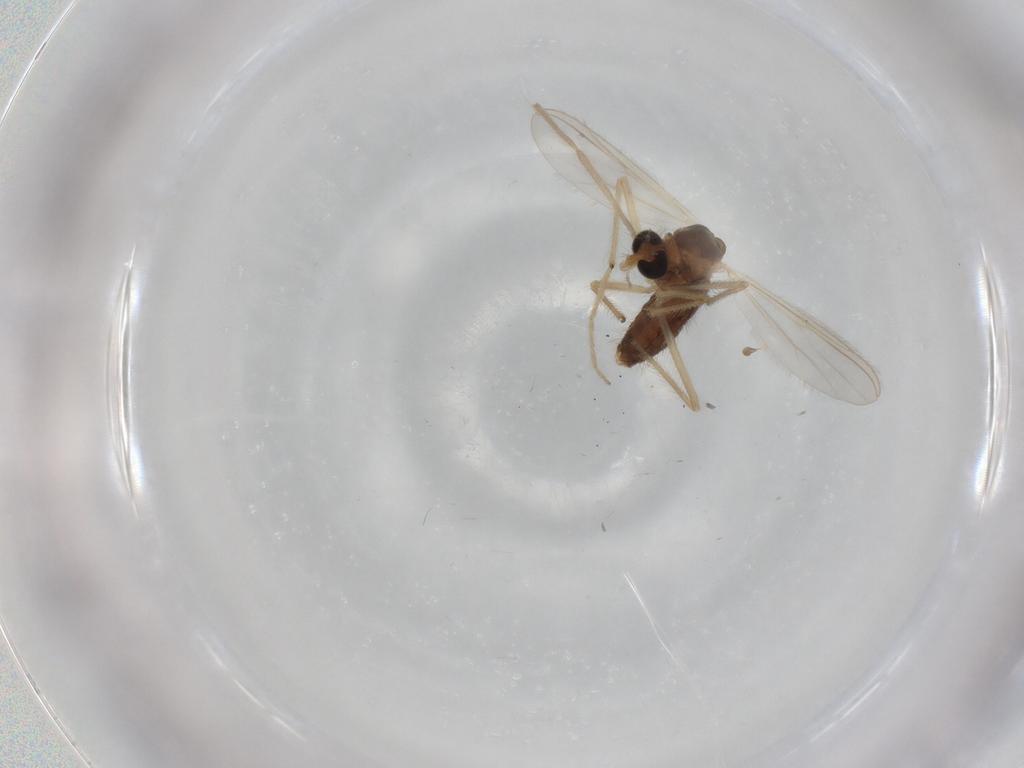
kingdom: Animalia
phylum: Arthropoda
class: Insecta
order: Diptera
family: Chironomidae
